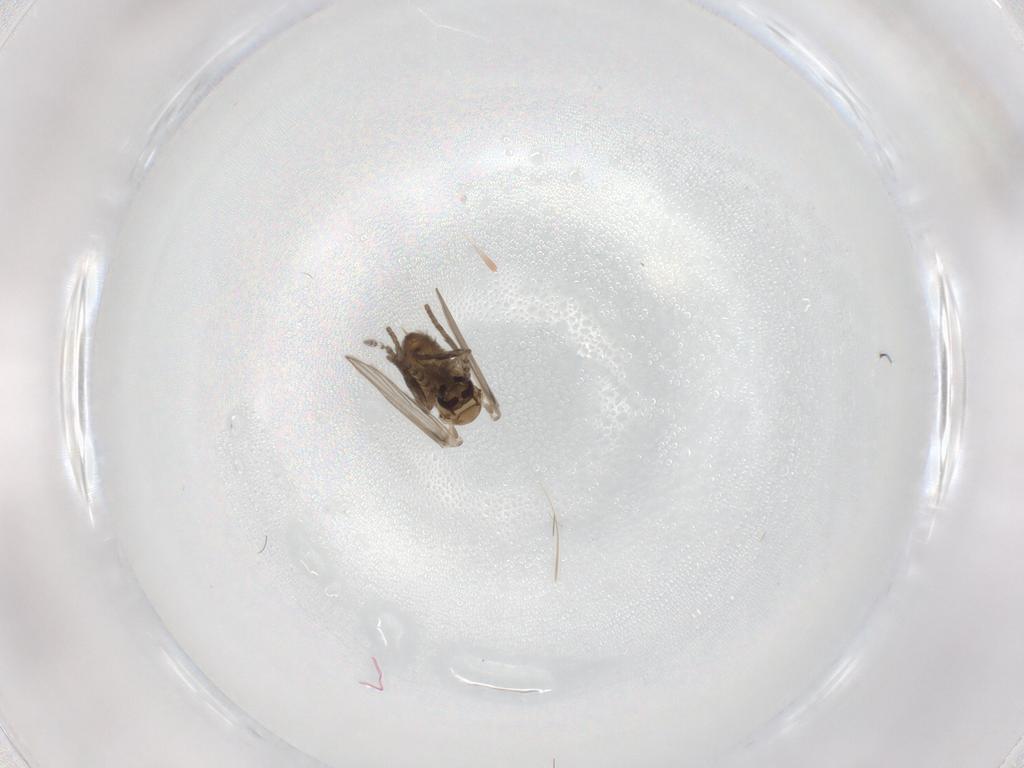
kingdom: Animalia
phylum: Arthropoda
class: Insecta
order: Diptera
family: Psychodidae
